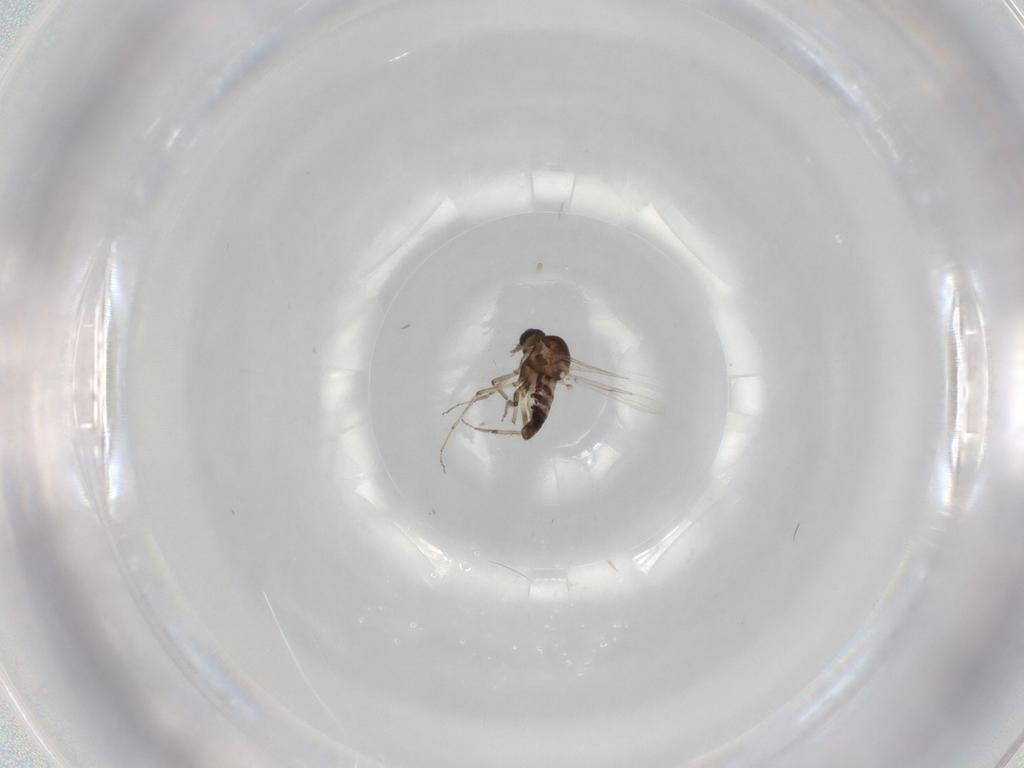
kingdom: Animalia
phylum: Arthropoda
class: Insecta
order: Diptera
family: Ceratopogonidae
